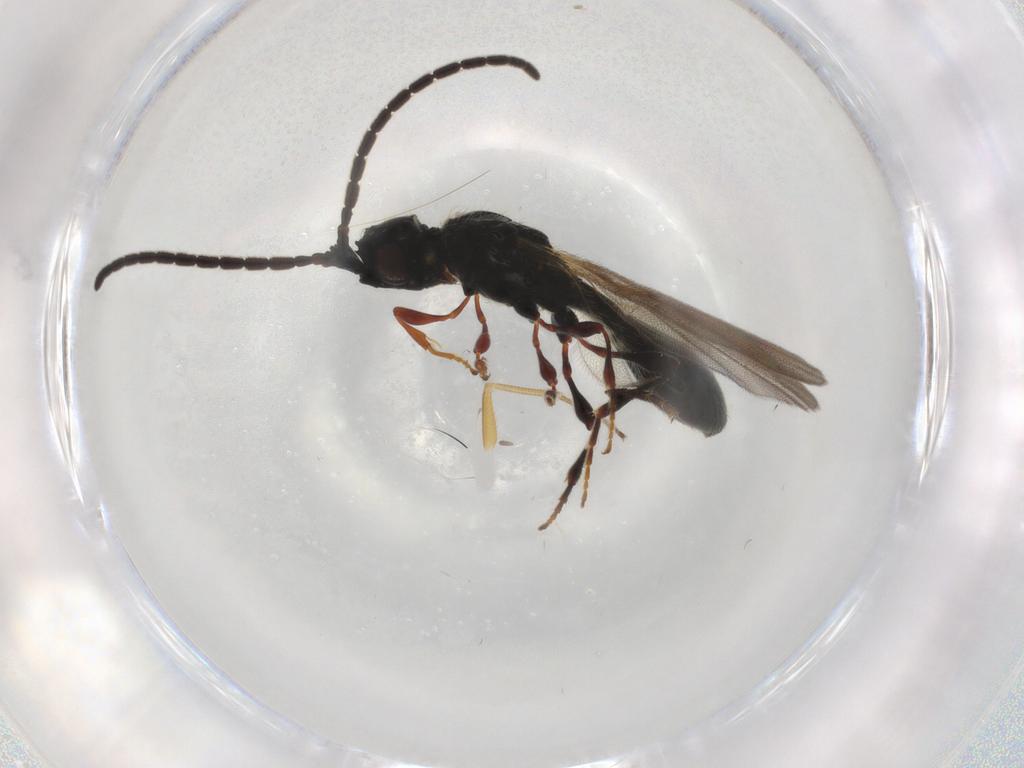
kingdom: Animalia
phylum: Arthropoda
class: Insecta
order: Hymenoptera
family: Diapriidae
